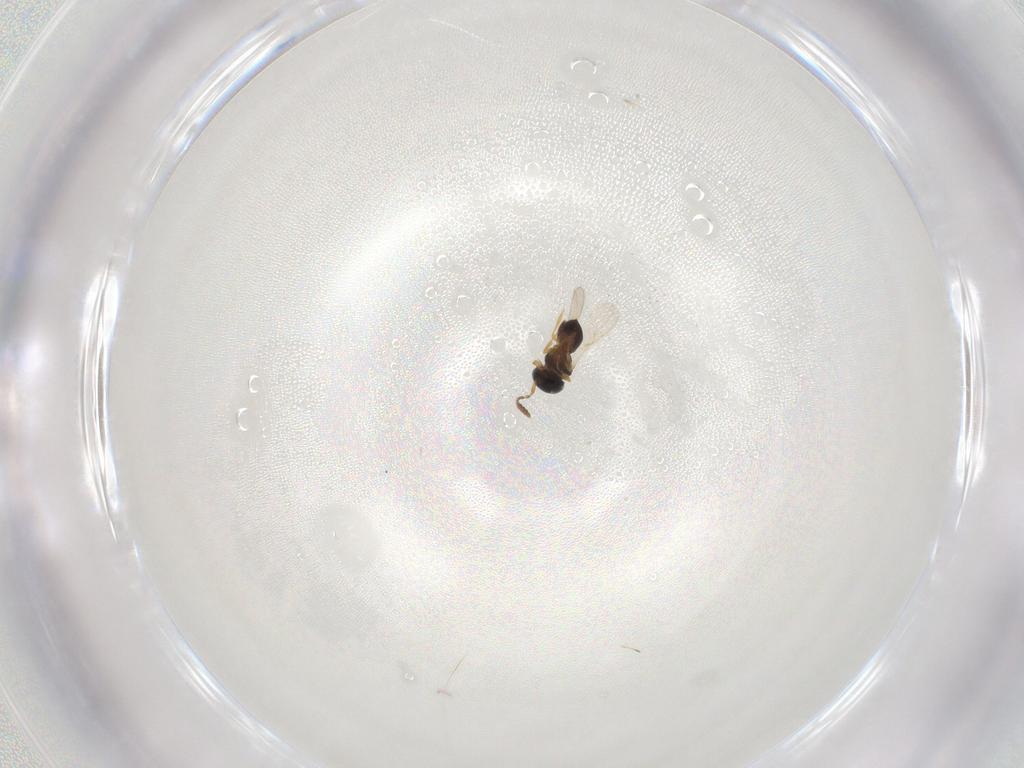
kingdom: Animalia
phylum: Arthropoda
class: Insecta
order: Hymenoptera
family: Scelionidae
